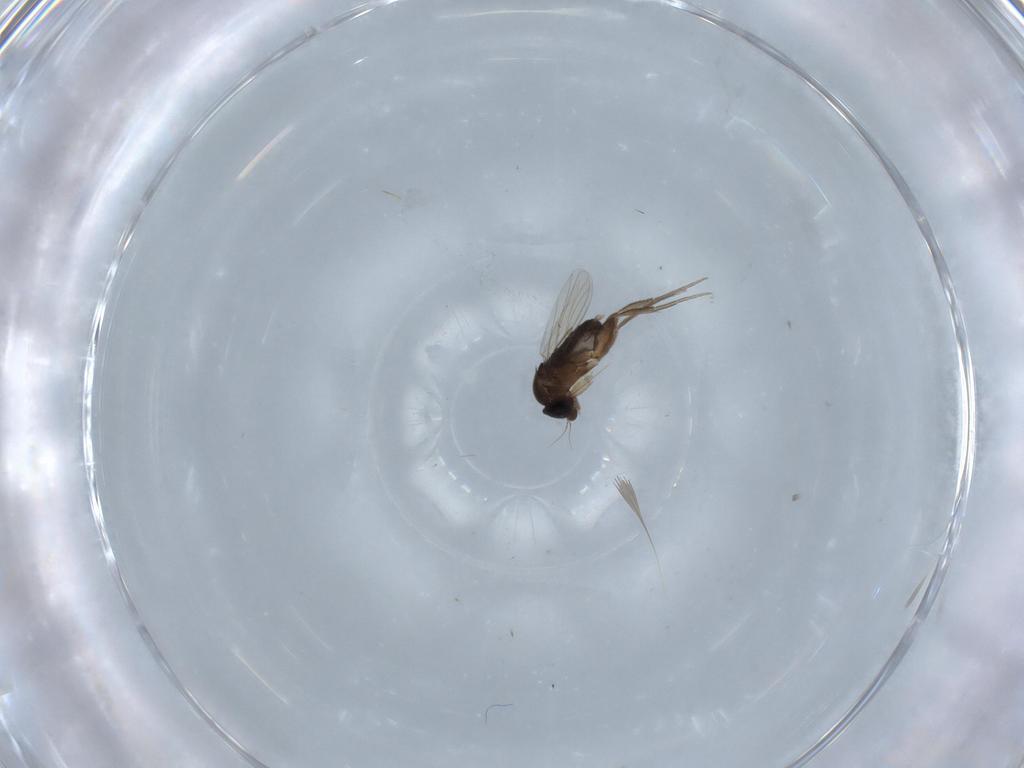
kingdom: Animalia
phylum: Arthropoda
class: Insecta
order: Diptera
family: Phoridae
